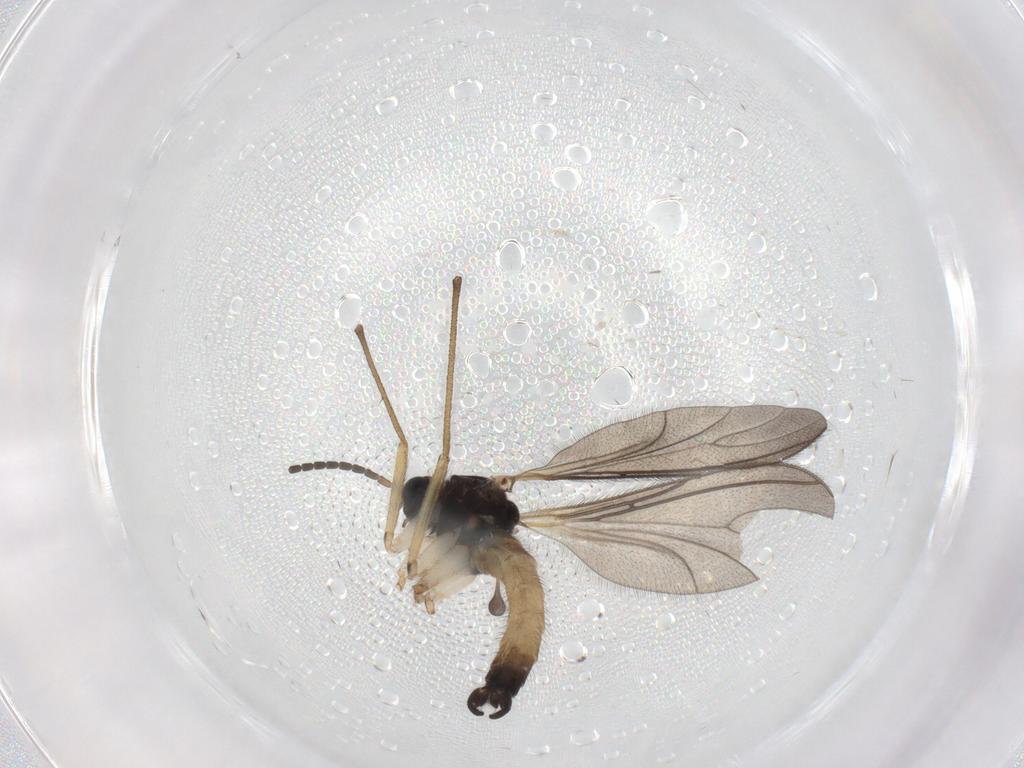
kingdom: Animalia
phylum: Arthropoda
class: Insecta
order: Diptera
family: Sciaridae
